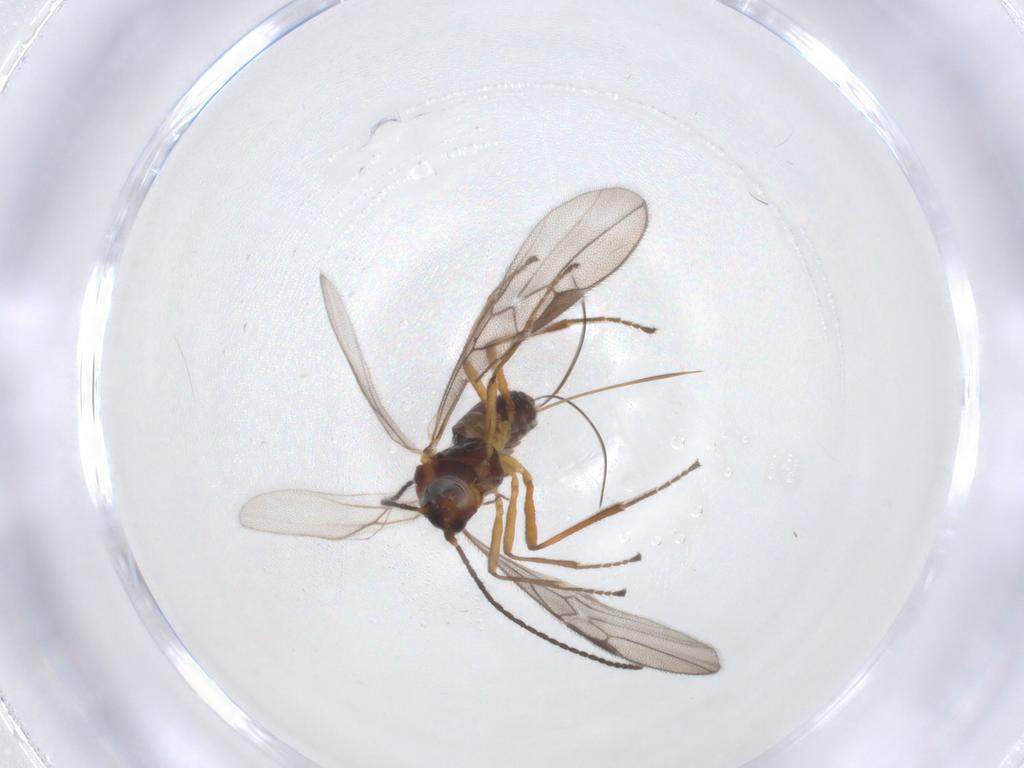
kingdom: Animalia
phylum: Arthropoda
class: Insecta
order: Hymenoptera
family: Braconidae
